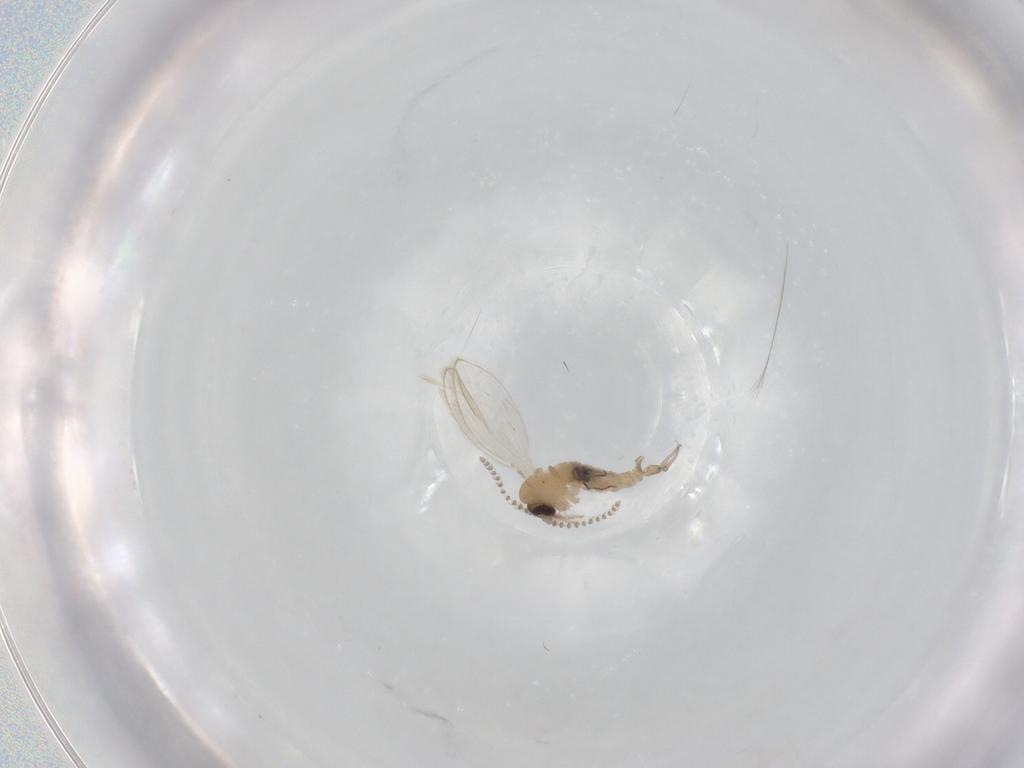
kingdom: Animalia
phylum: Arthropoda
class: Insecta
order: Diptera
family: Psychodidae
